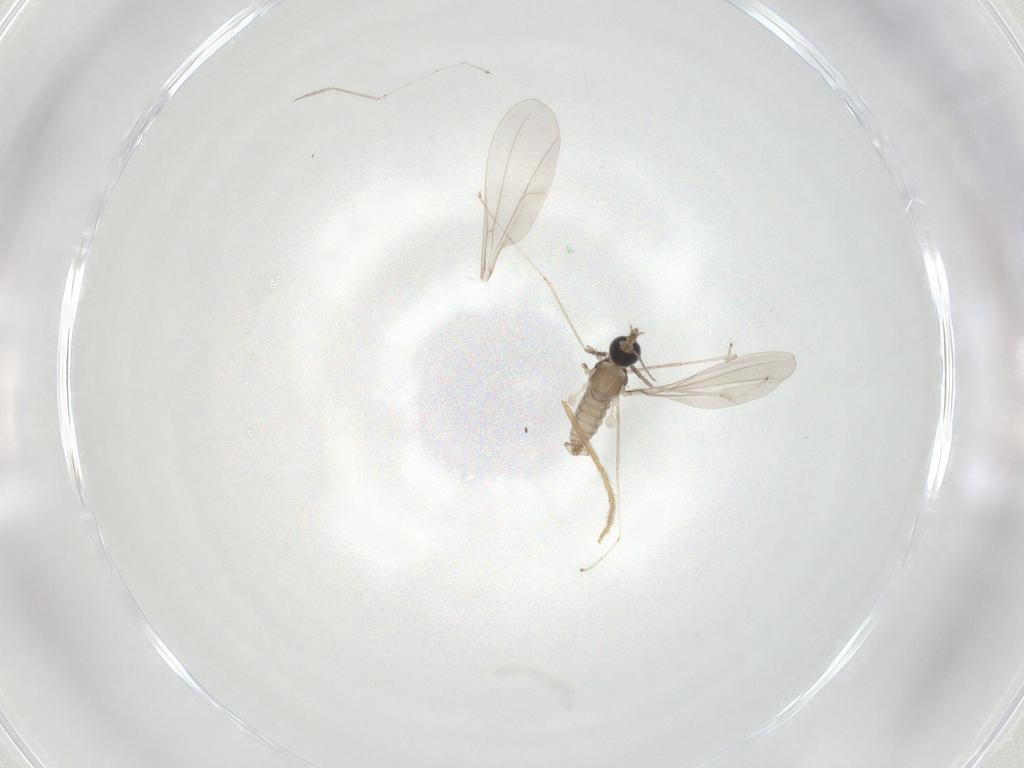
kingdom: Animalia
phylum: Arthropoda
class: Insecta
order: Diptera
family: Cecidomyiidae
